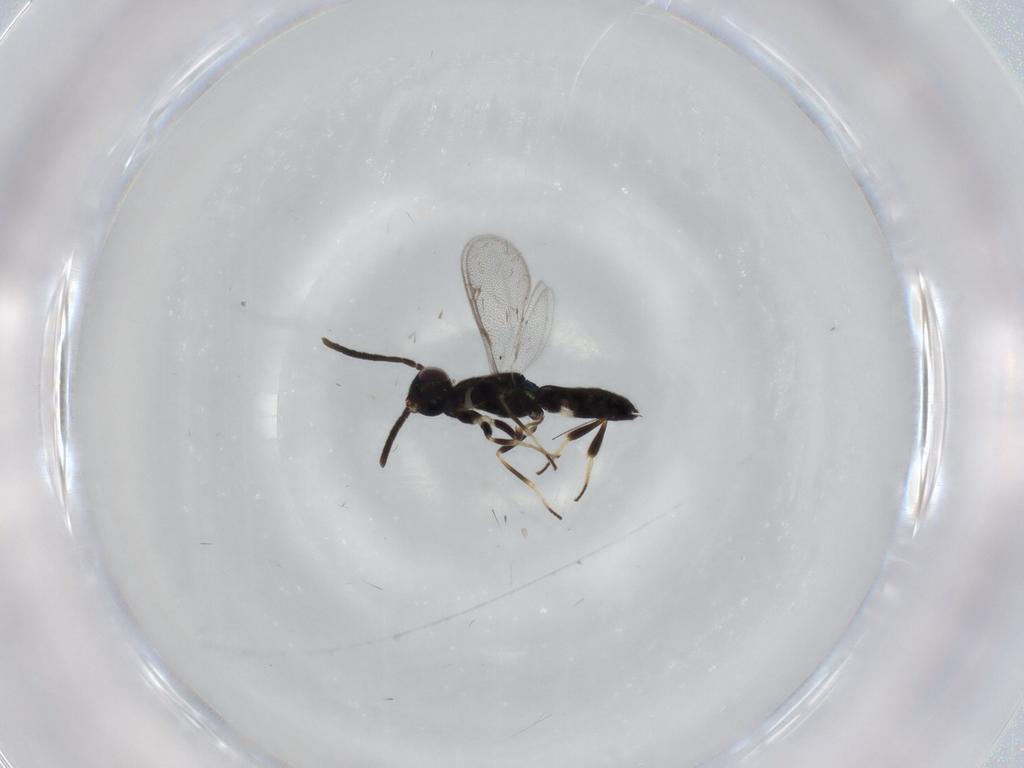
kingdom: Animalia
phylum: Arthropoda
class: Insecta
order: Hymenoptera
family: Eupelmidae
